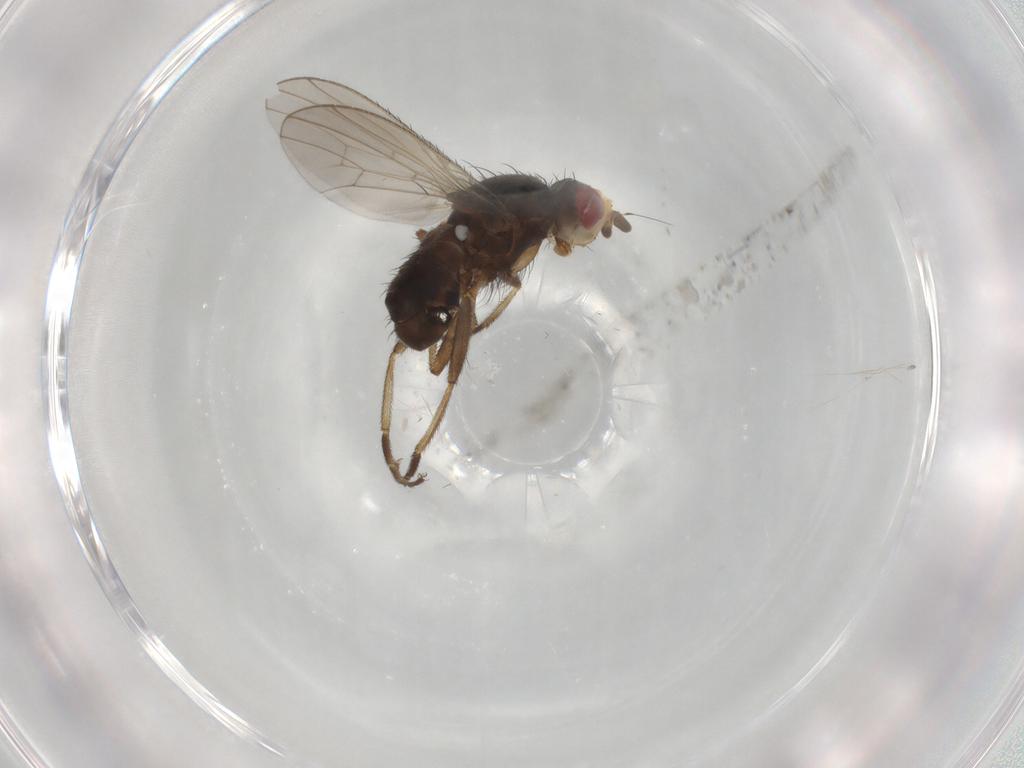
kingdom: Animalia
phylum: Arthropoda
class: Insecta
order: Diptera
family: Heleomyzidae
